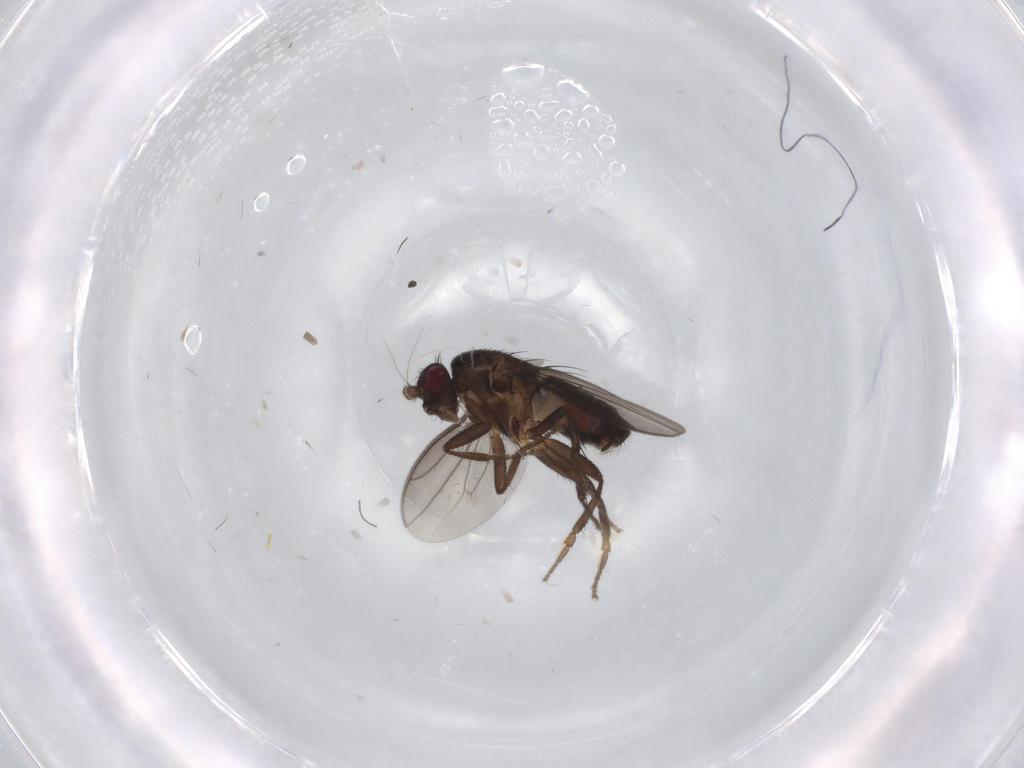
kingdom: Animalia
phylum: Arthropoda
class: Insecta
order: Diptera
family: Sphaeroceridae
